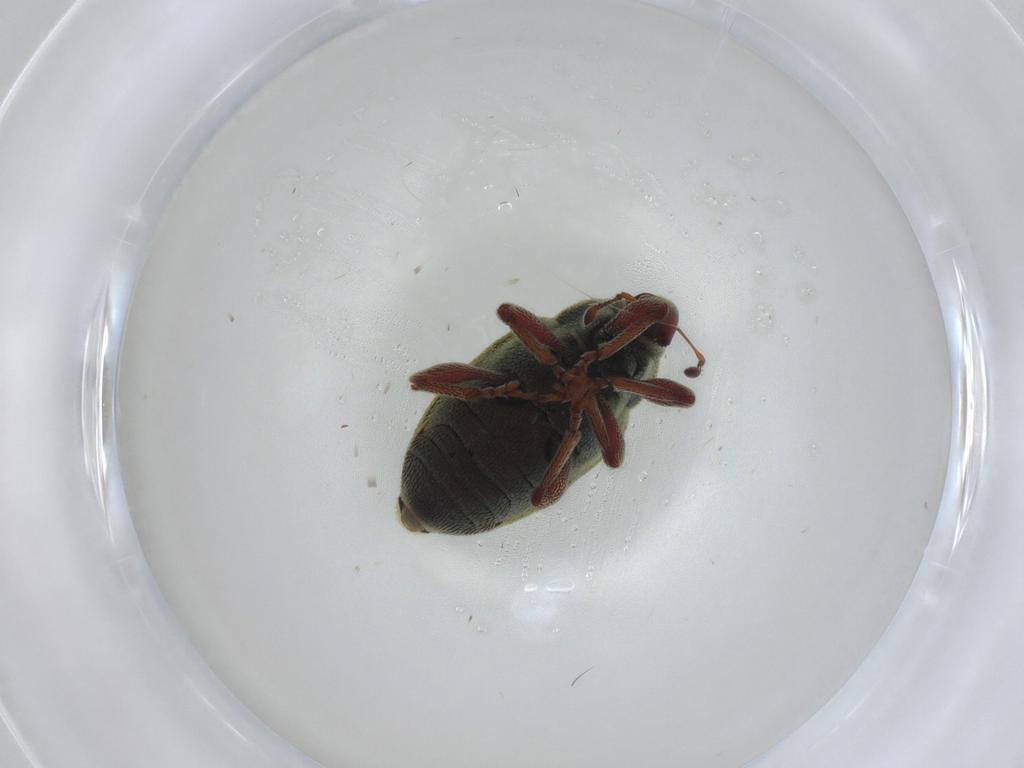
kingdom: Animalia
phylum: Arthropoda
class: Insecta
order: Coleoptera
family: Curculionidae
